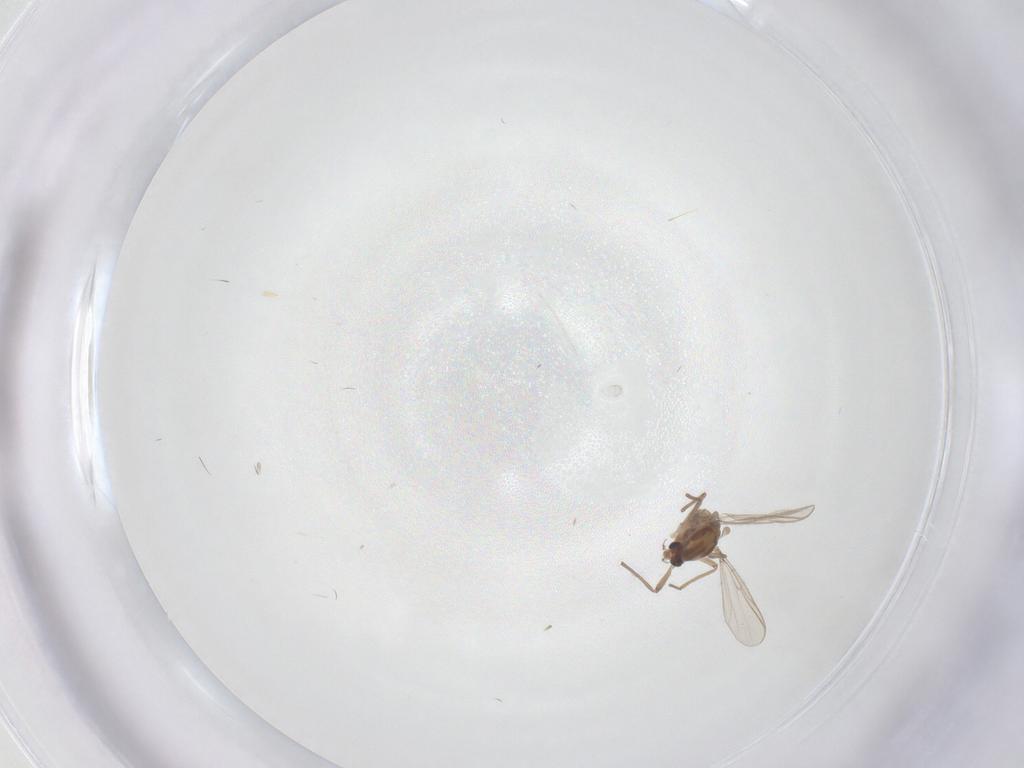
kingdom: Animalia
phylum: Arthropoda
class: Insecta
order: Diptera
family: Chironomidae
